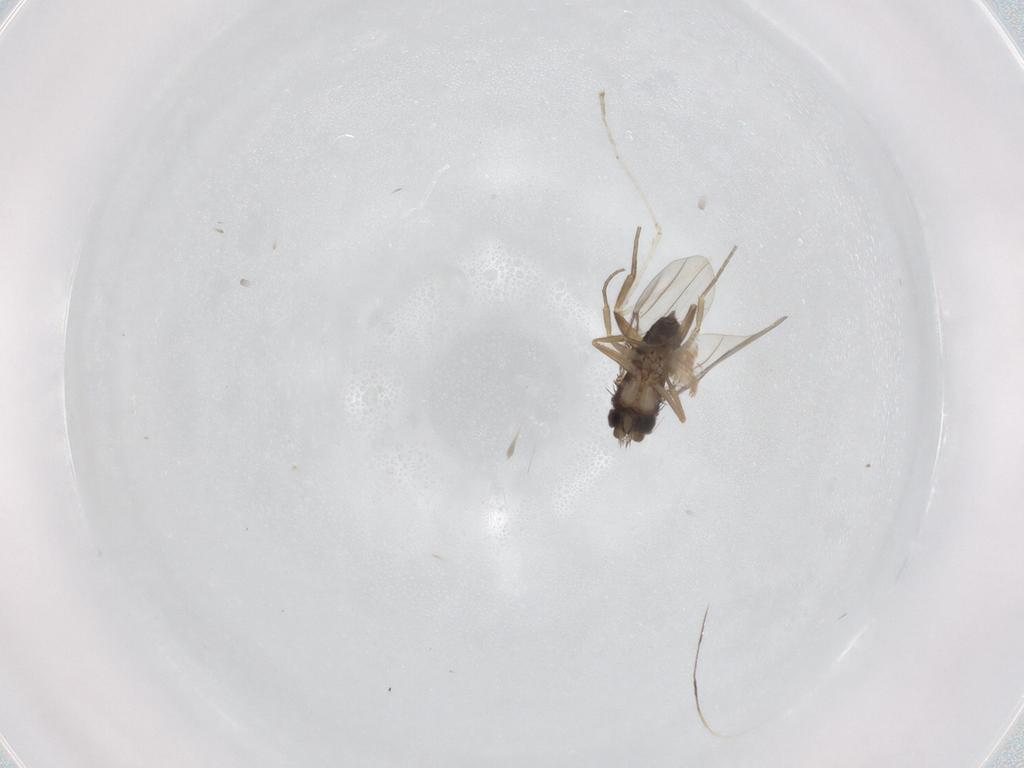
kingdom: Animalia
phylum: Arthropoda
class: Insecta
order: Diptera
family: Phoridae
